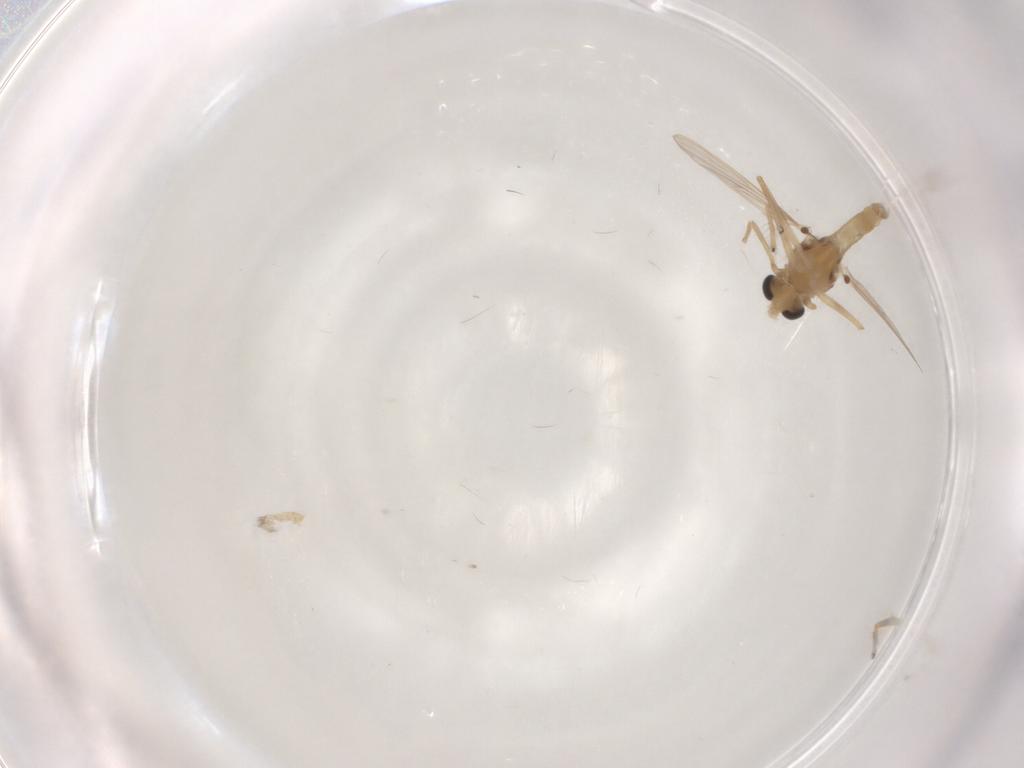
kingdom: Animalia
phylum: Arthropoda
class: Insecta
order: Diptera
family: Chironomidae
